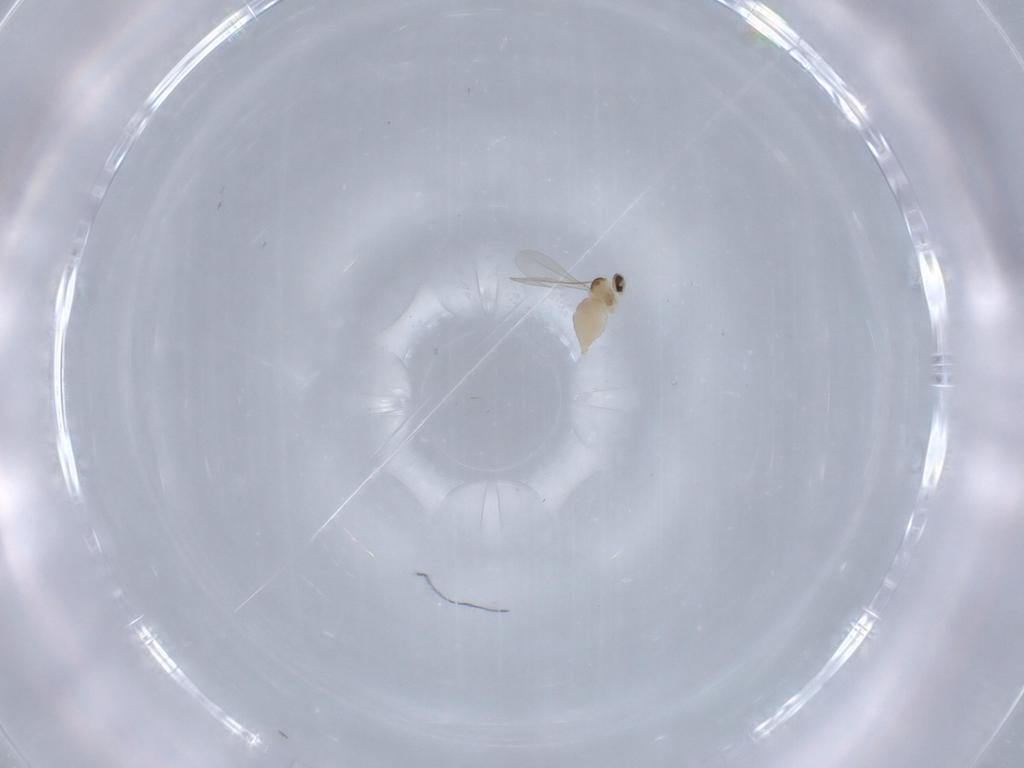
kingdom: Animalia
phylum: Arthropoda
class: Insecta
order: Diptera
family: Cecidomyiidae
